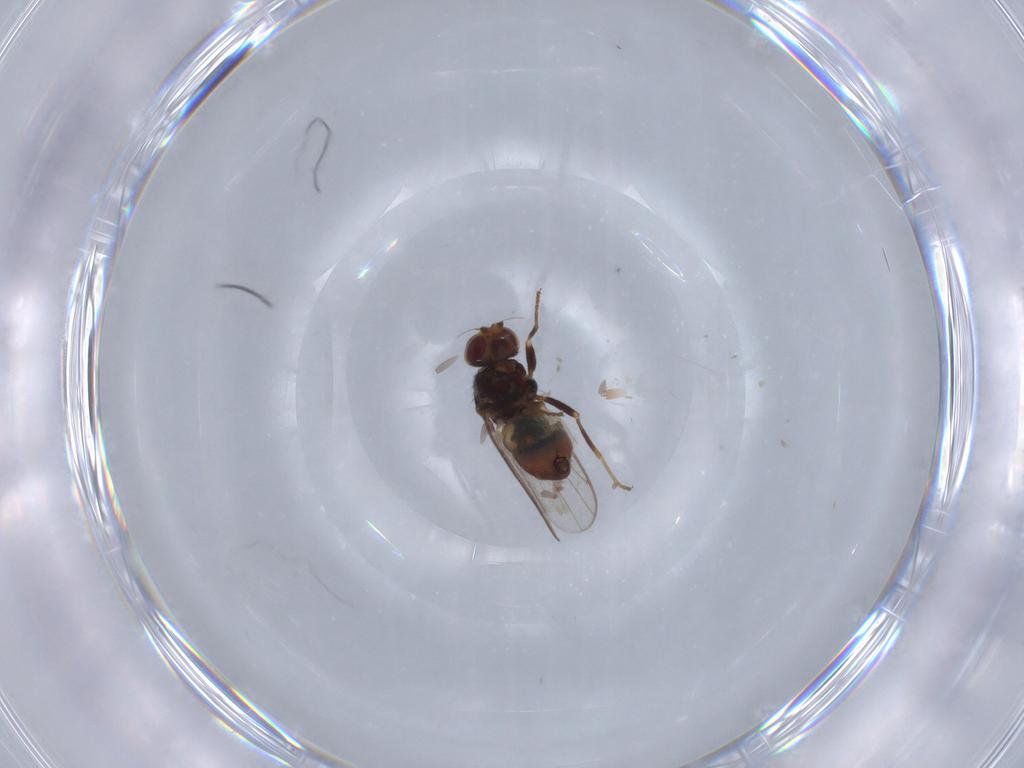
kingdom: Animalia
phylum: Arthropoda
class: Insecta
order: Diptera
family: Chloropidae
